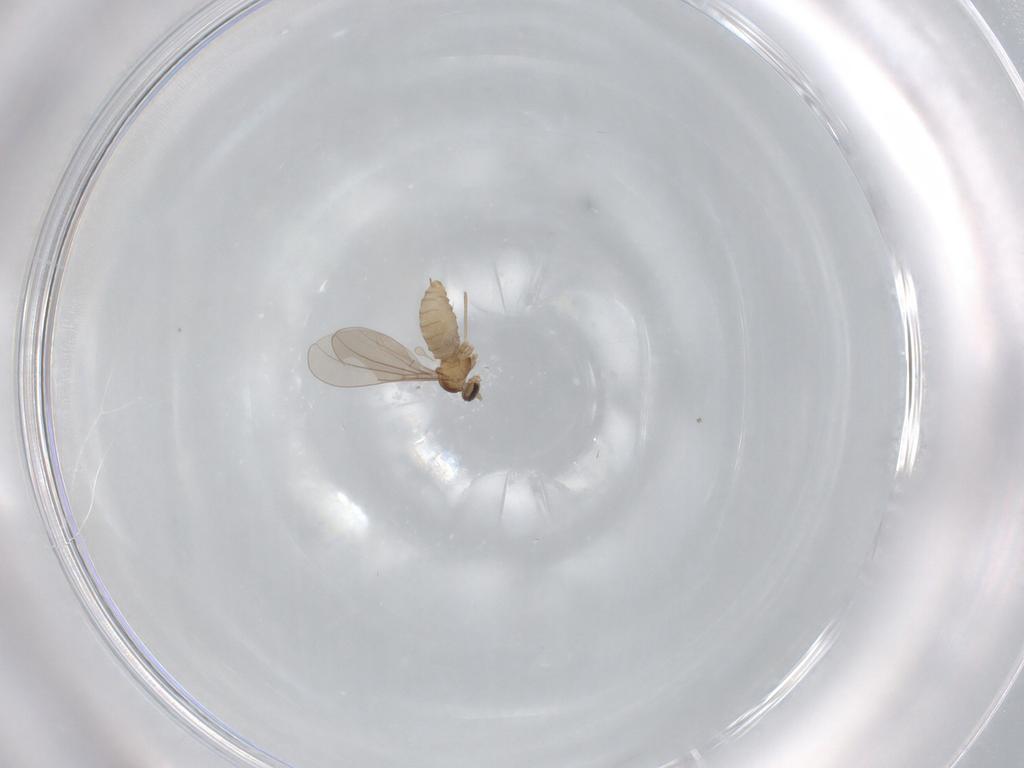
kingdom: Animalia
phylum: Arthropoda
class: Insecta
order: Diptera
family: Cecidomyiidae
